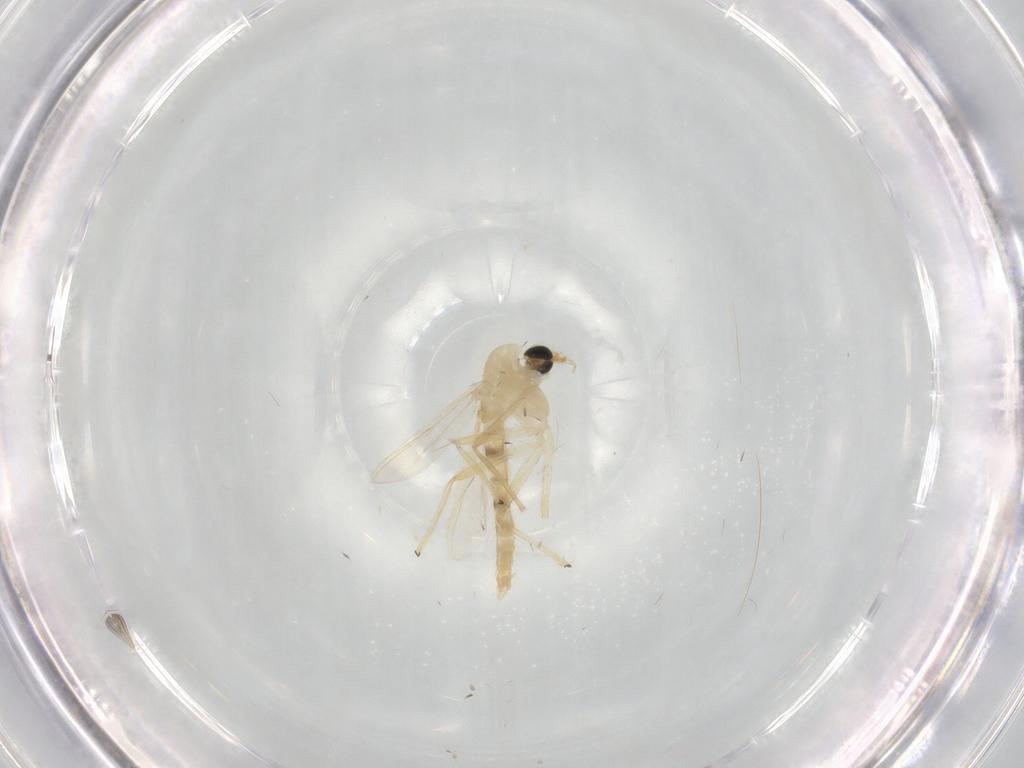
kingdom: Animalia
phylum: Arthropoda
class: Insecta
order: Diptera
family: Chironomidae
